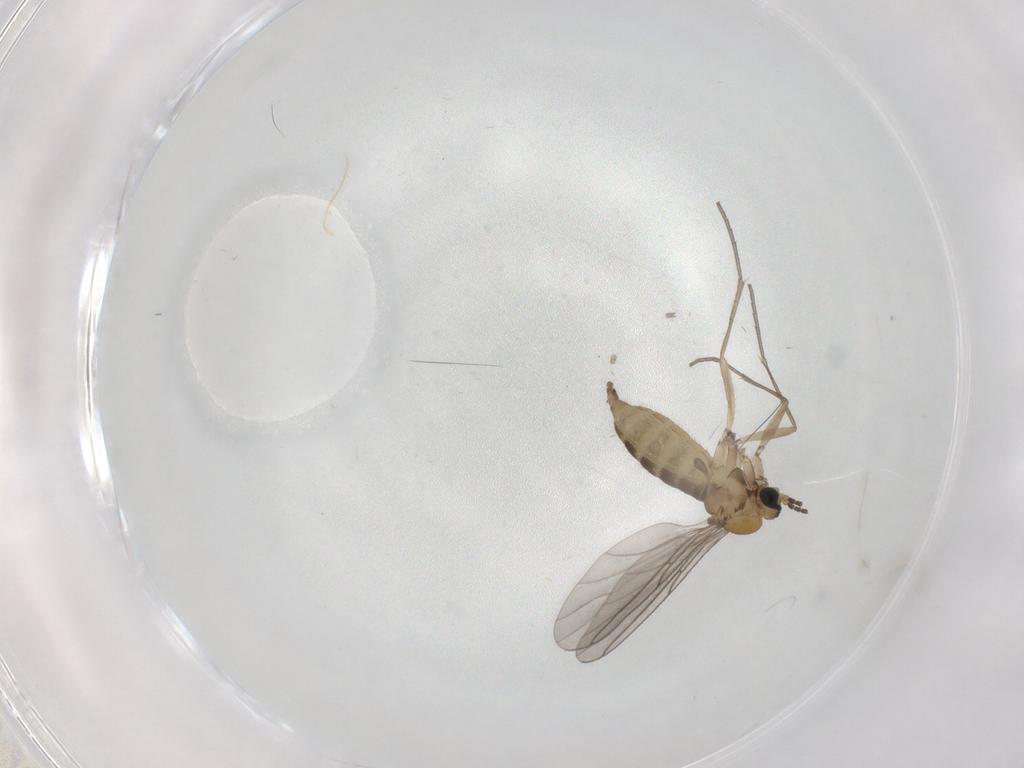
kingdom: Animalia
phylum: Arthropoda
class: Insecta
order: Diptera
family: Sciaridae
